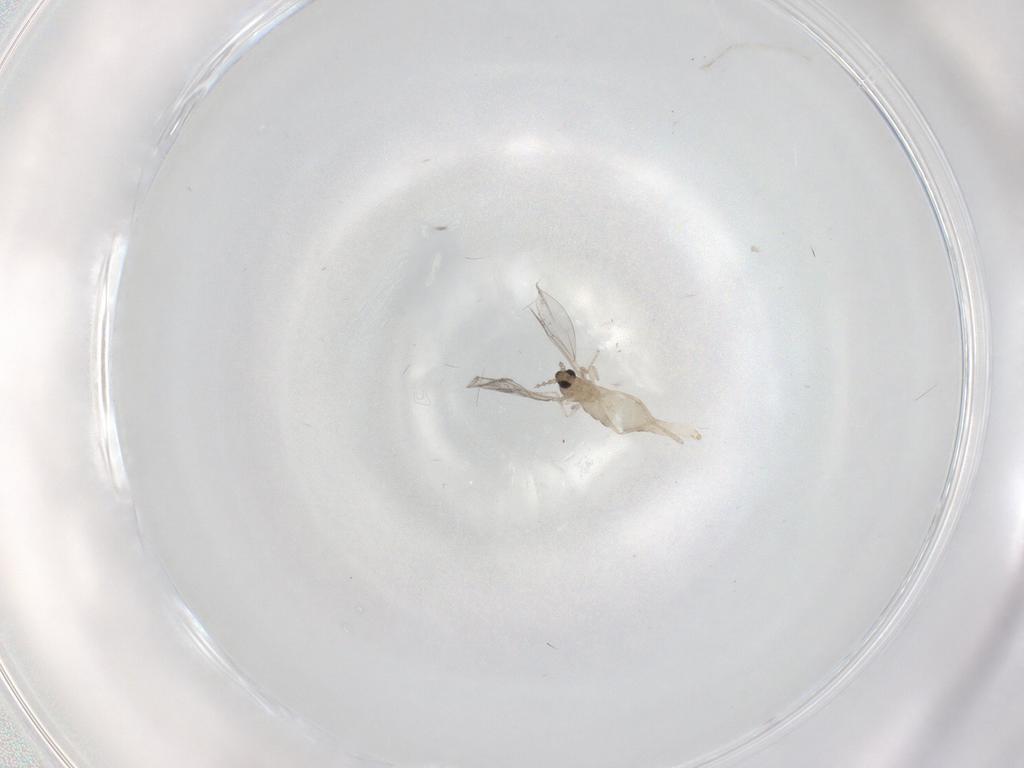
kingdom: Animalia
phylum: Arthropoda
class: Insecta
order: Diptera
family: Cecidomyiidae
